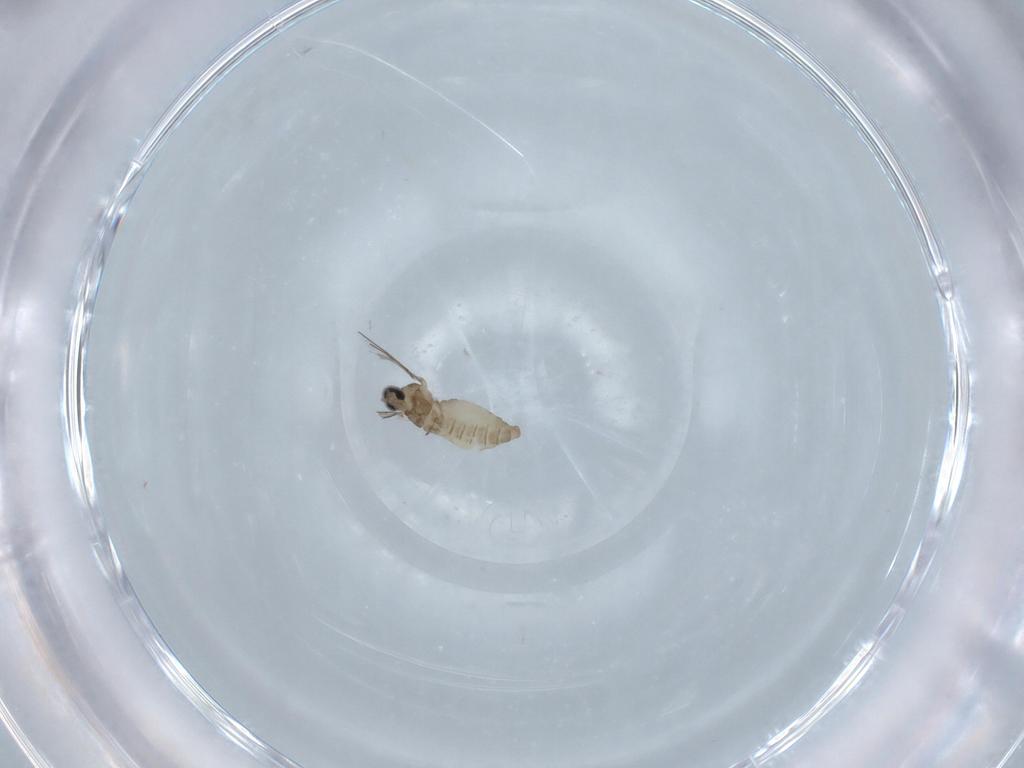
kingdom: Animalia
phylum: Arthropoda
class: Insecta
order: Diptera
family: Cecidomyiidae
